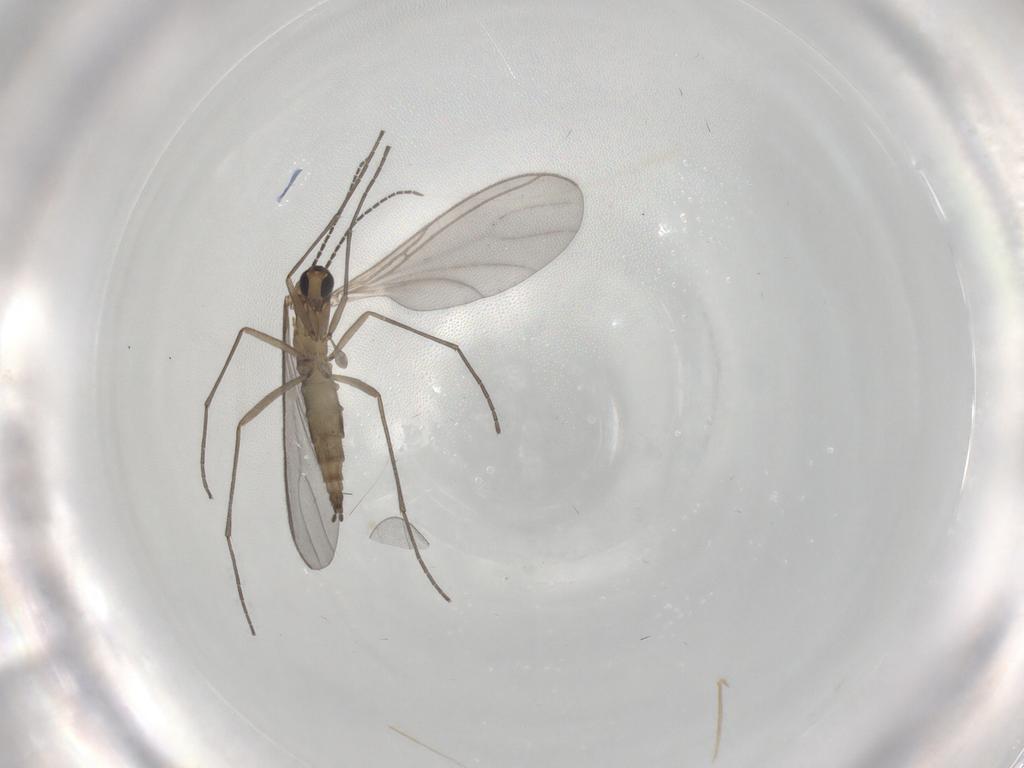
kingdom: Animalia
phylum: Arthropoda
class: Insecta
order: Diptera
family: Sciaridae
